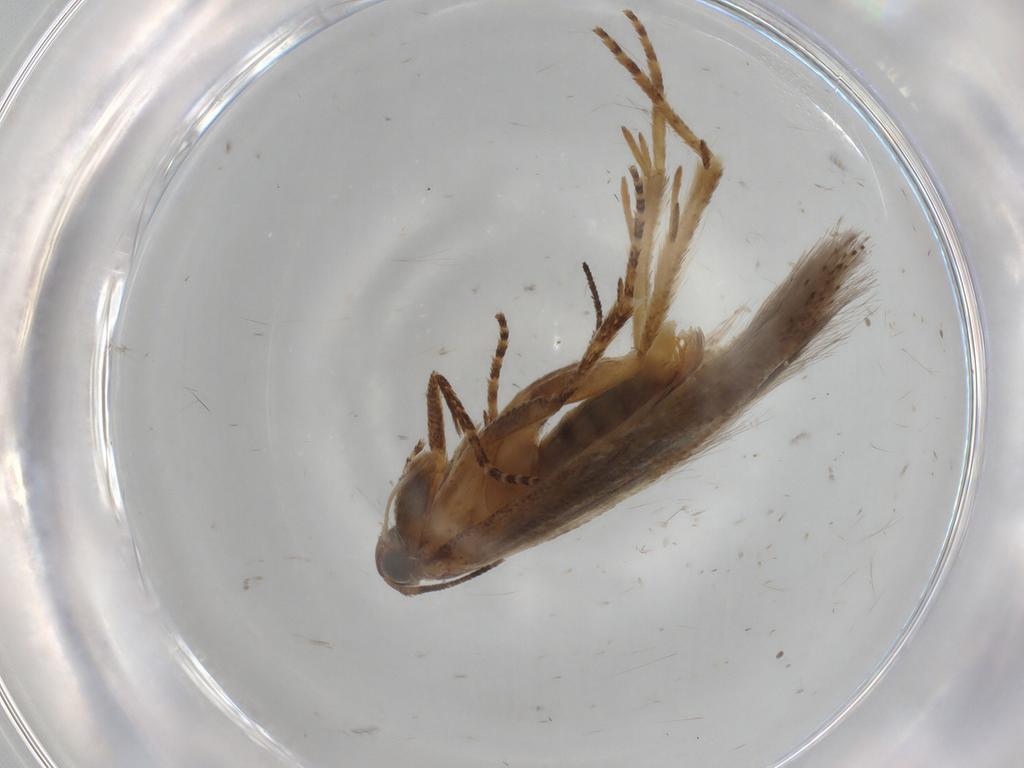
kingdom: Animalia
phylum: Arthropoda
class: Insecta
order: Lepidoptera
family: Gelechiidae
